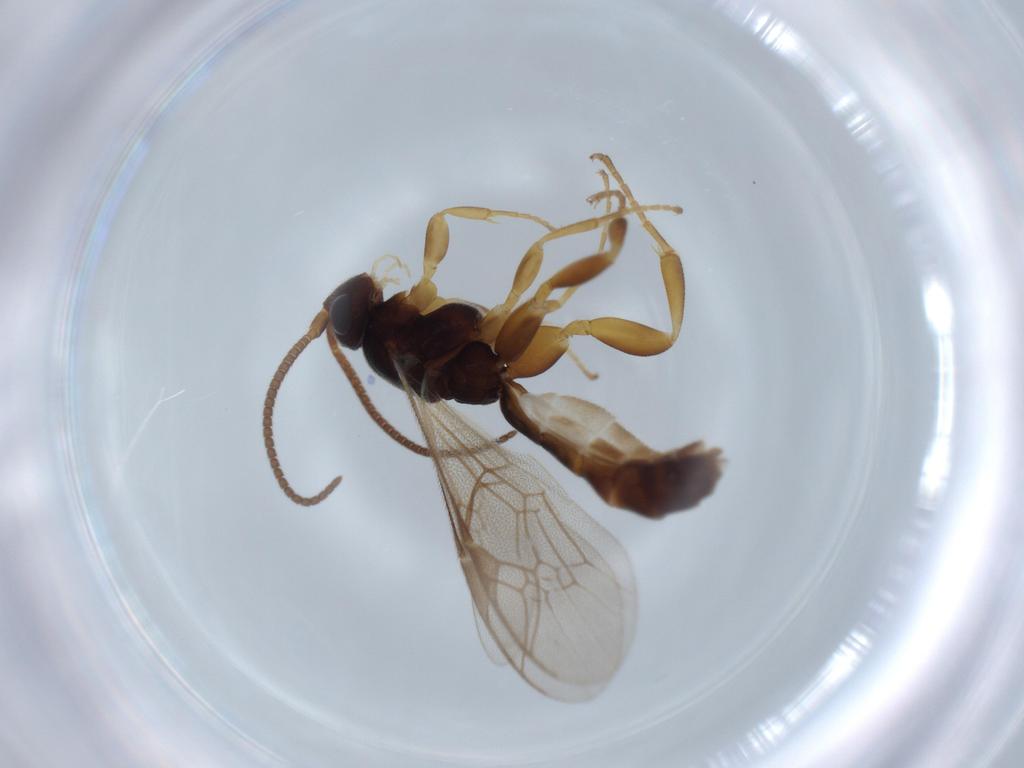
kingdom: Animalia
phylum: Arthropoda
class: Insecta
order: Hymenoptera
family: Ichneumonidae
